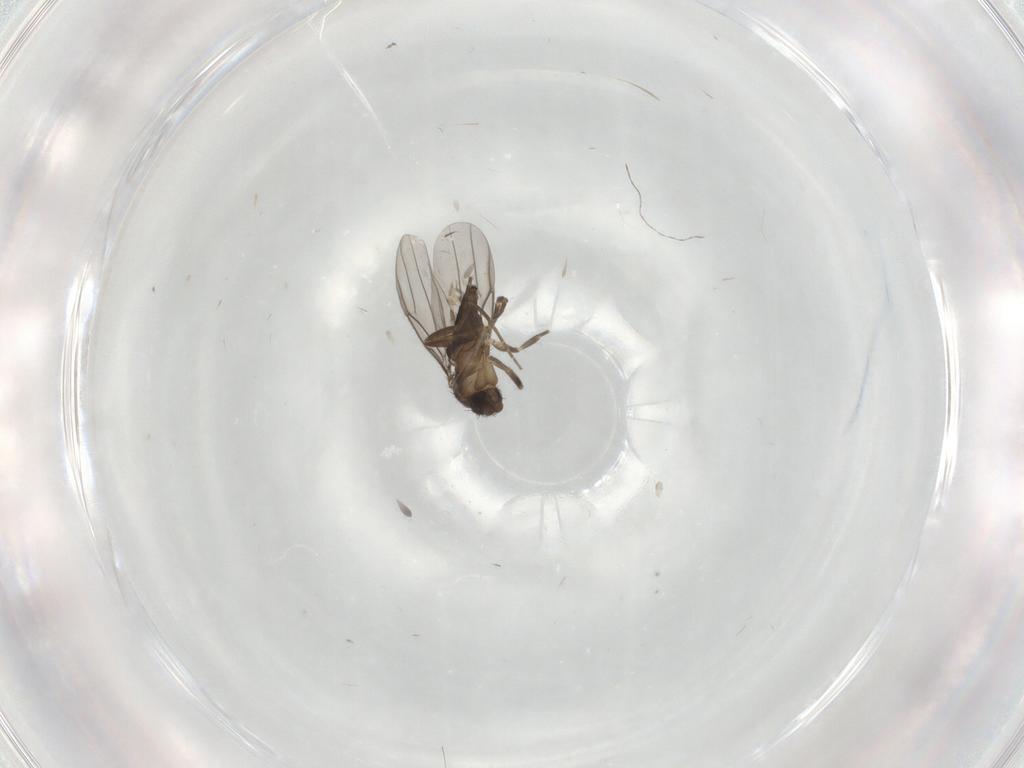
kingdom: Animalia
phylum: Arthropoda
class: Insecta
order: Diptera
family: Phoridae
